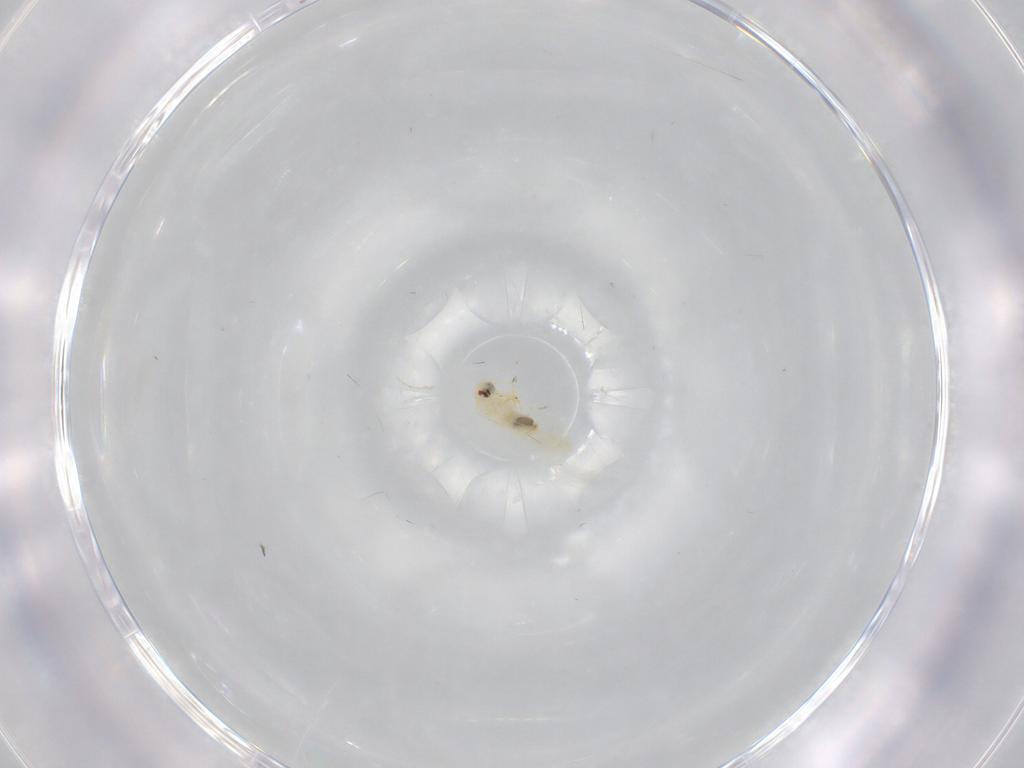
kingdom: Animalia
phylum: Arthropoda
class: Insecta
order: Hemiptera
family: Aleyrodidae
